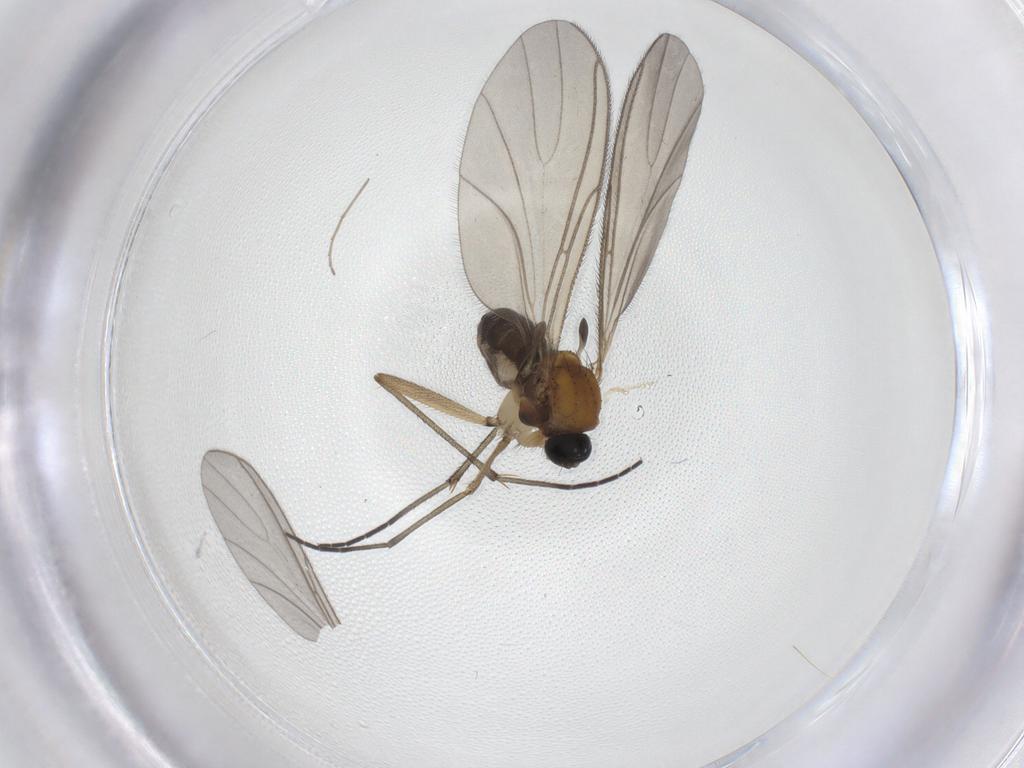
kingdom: Animalia
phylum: Arthropoda
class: Insecta
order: Diptera
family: Sciaridae
